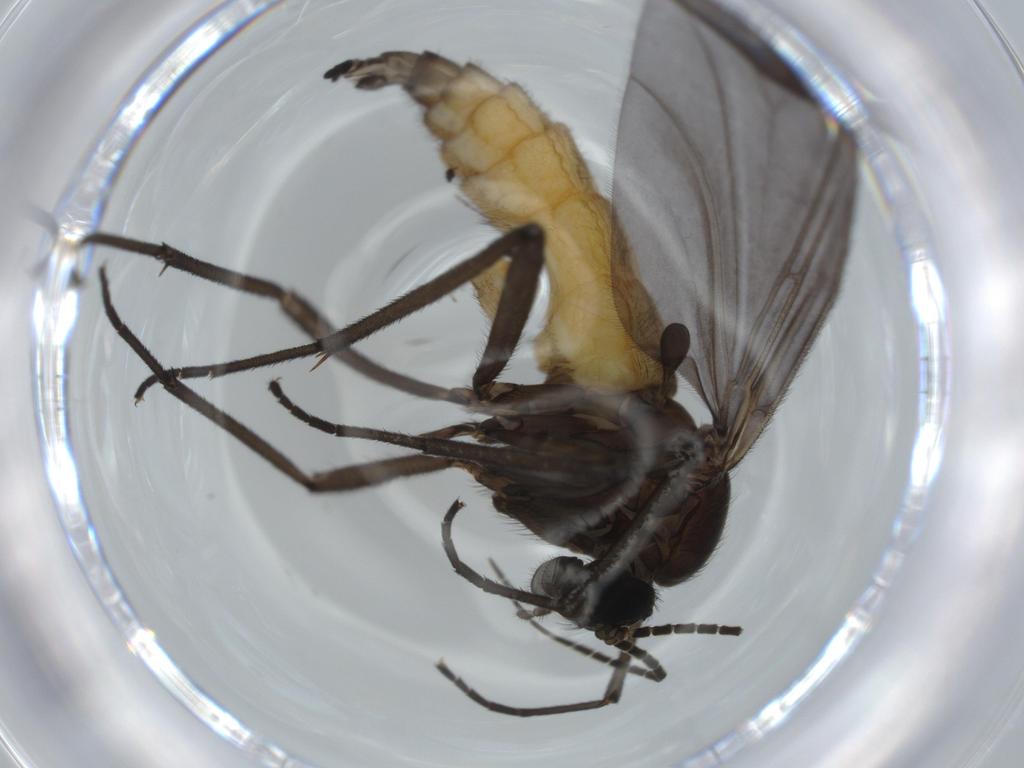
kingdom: Animalia
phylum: Arthropoda
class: Insecta
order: Diptera
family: Cecidomyiidae
